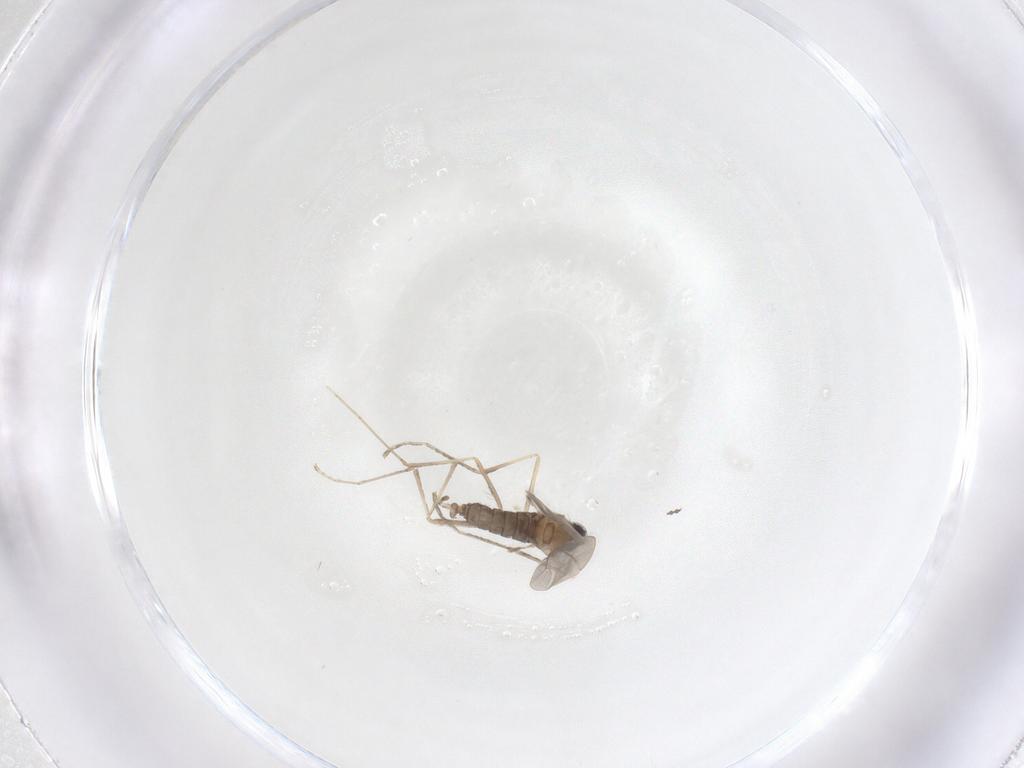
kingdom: Animalia
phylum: Arthropoda
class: Insecta
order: Diptera
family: Cecidomyiidae
